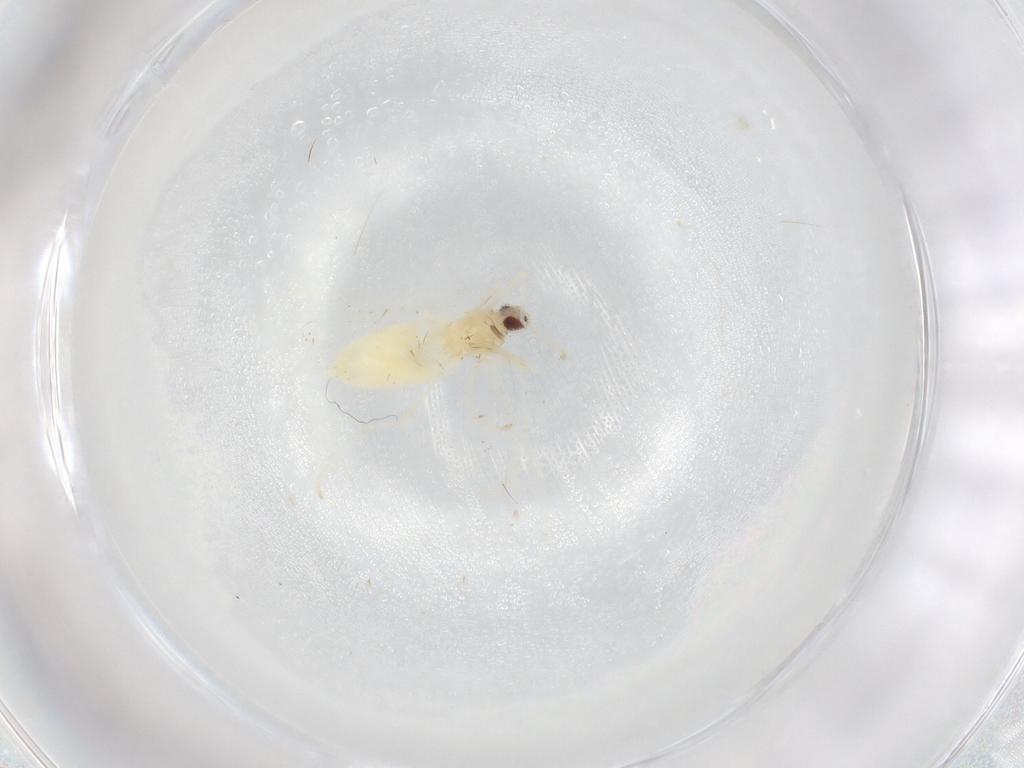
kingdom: Animalia
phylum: Arthropoda
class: Insecta
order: Diptera
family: Cecidomyiidae
